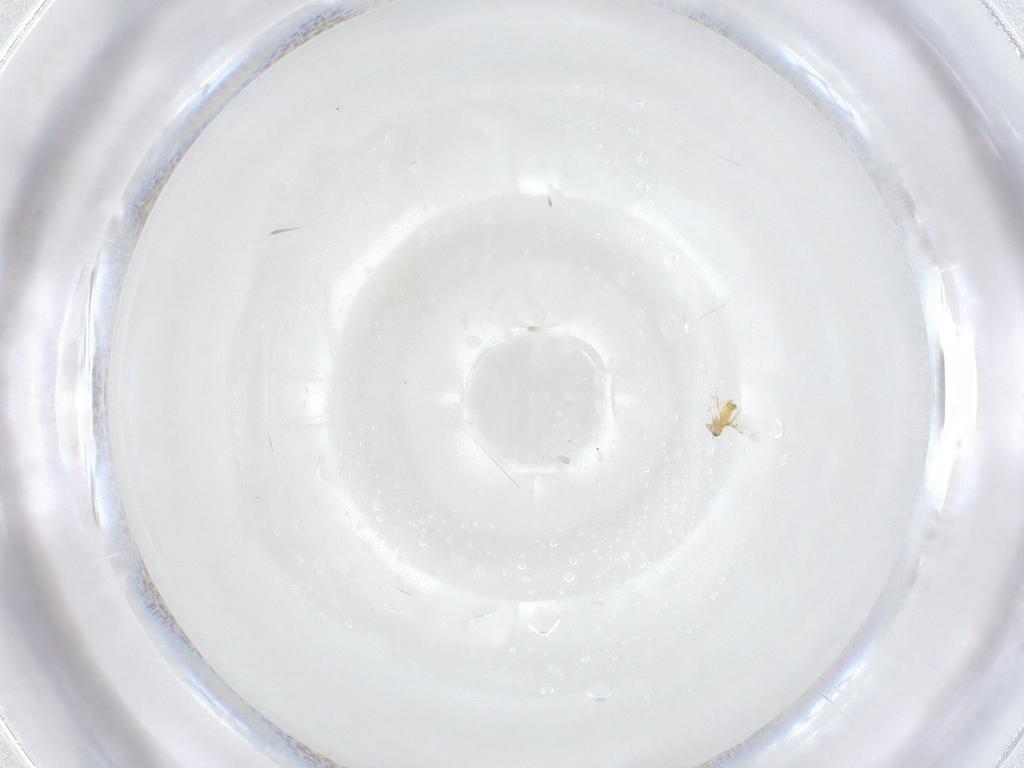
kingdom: Animalia
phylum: Arthropoda
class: Insecta
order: Hymenoptera
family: Trichogrammatidae
